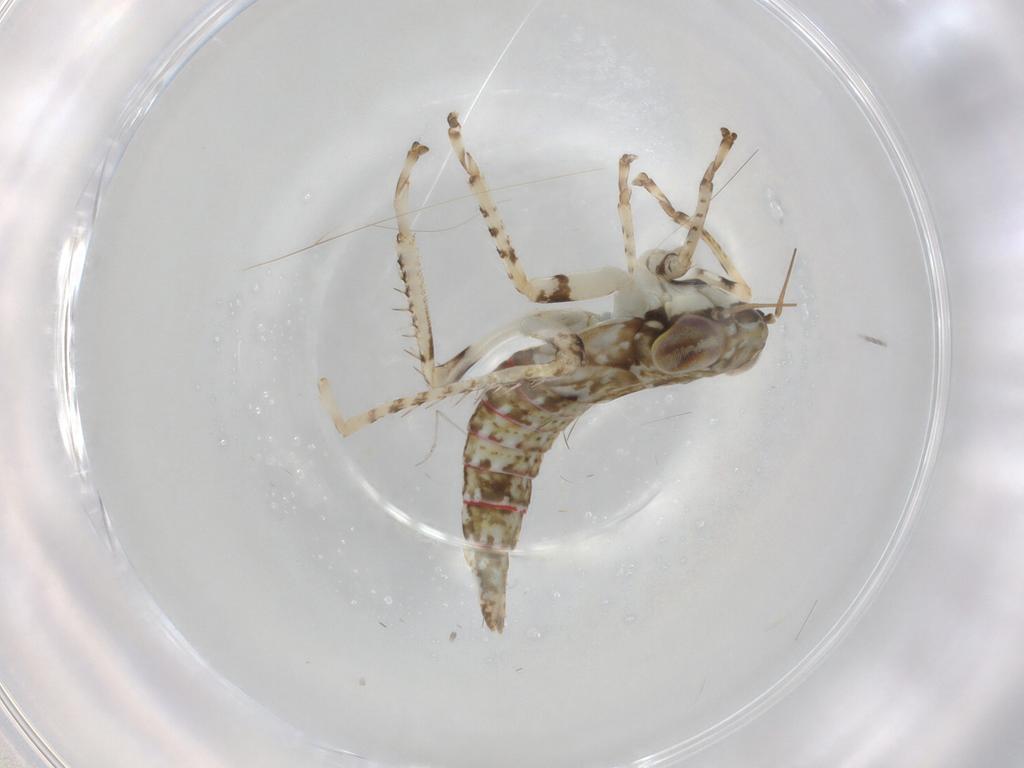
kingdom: Animalia
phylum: Arthropoda
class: Insecta
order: Hemiptera
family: Cicadellidae
